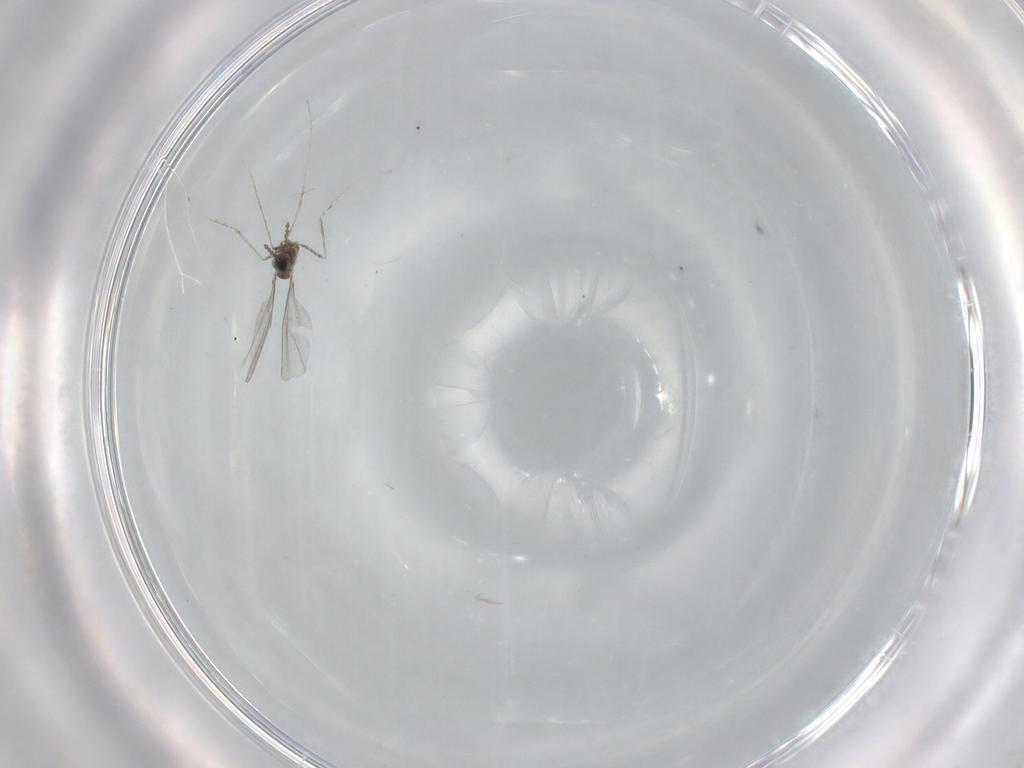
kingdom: Animalia
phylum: Arthropoda
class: Insecta
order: Diptera
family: Cecidomyiidae
